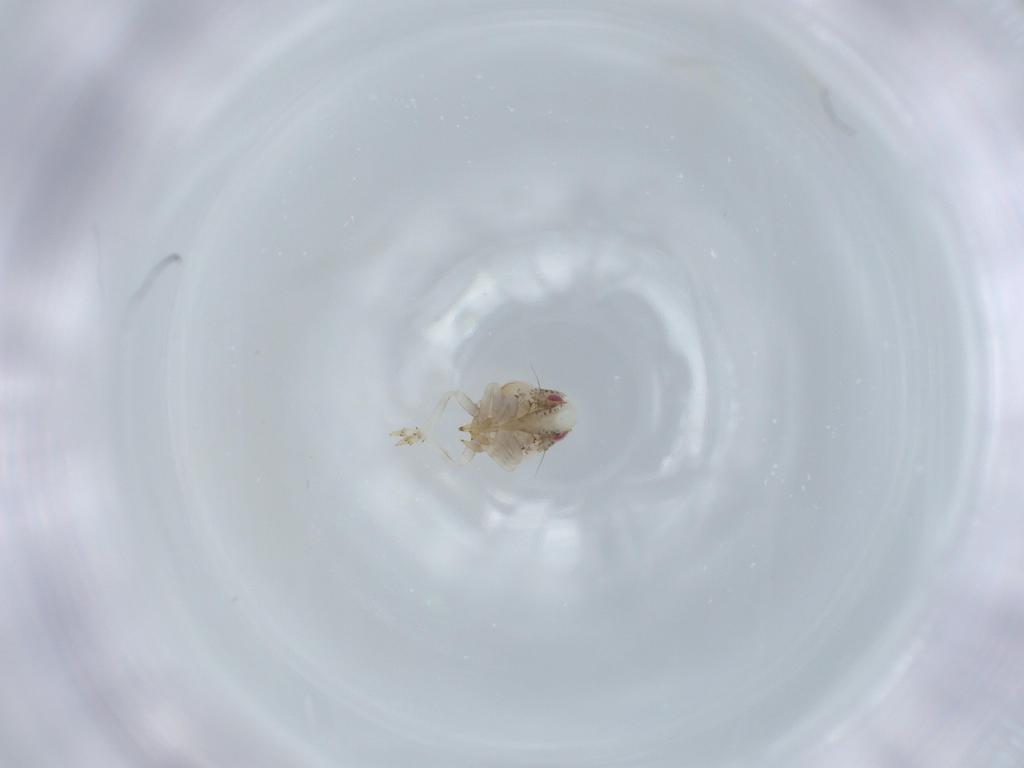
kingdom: Animalia
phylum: Arthropoda
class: Insecta
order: Hemiptera
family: Acanaloniidae
